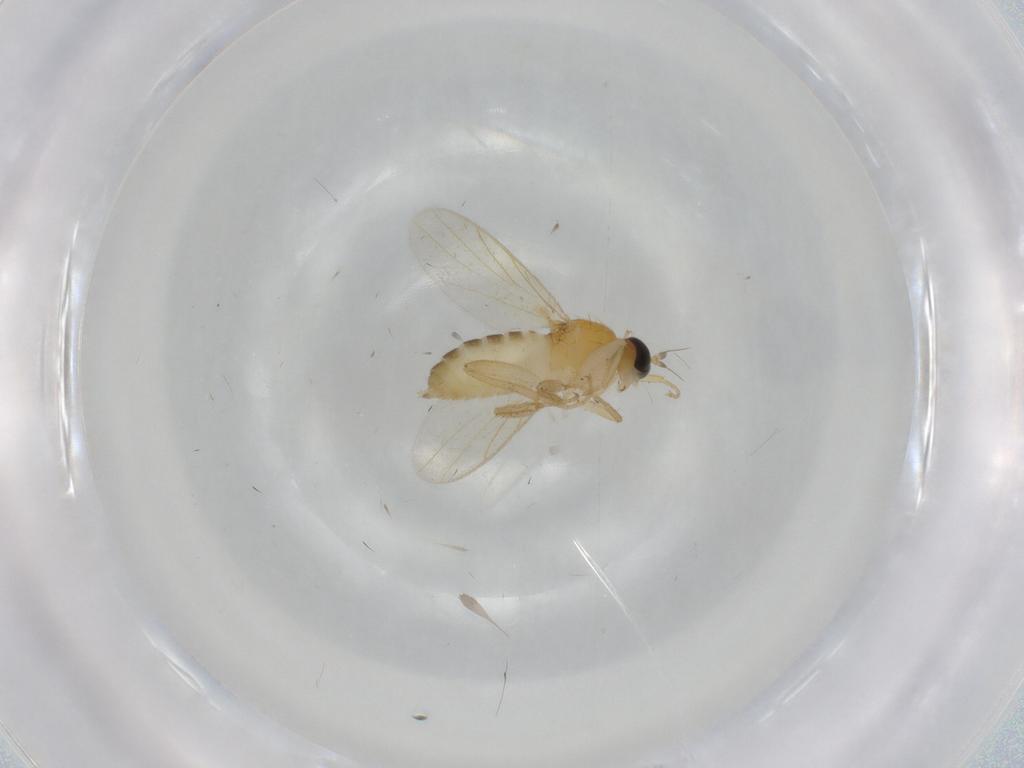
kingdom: Animalia
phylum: Arthropoda
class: Insecta
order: Diptera
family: Hybotidae
